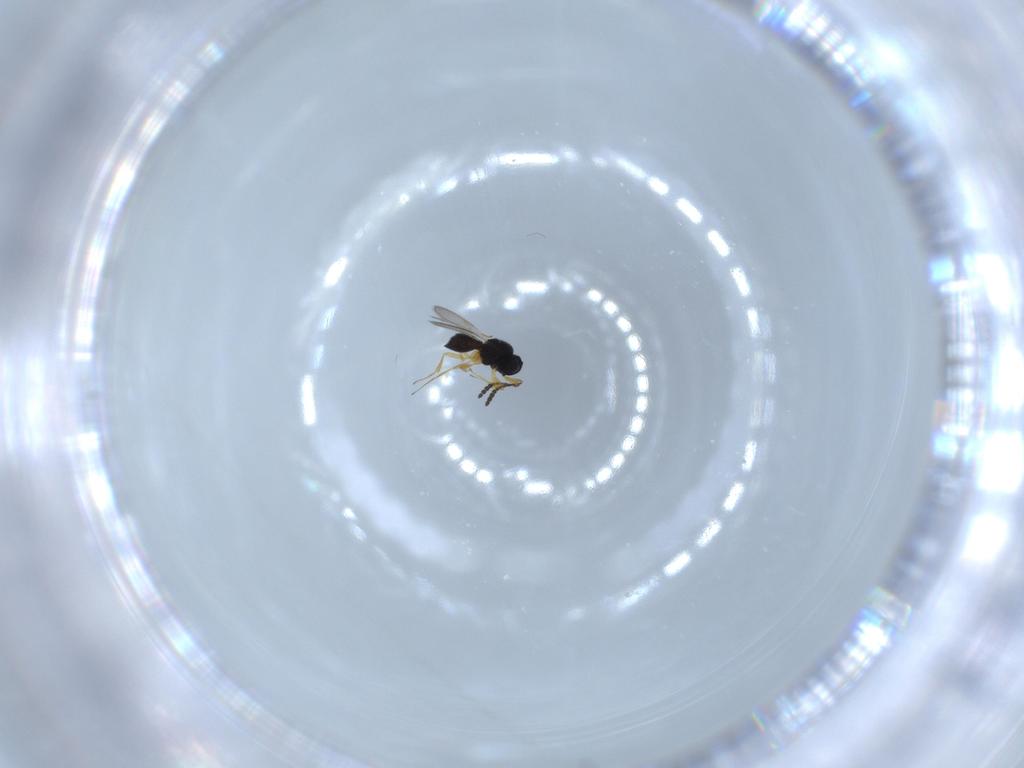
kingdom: Animalia
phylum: Arthropoda
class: Insecta
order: Hymenoptera
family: Scelionidae
